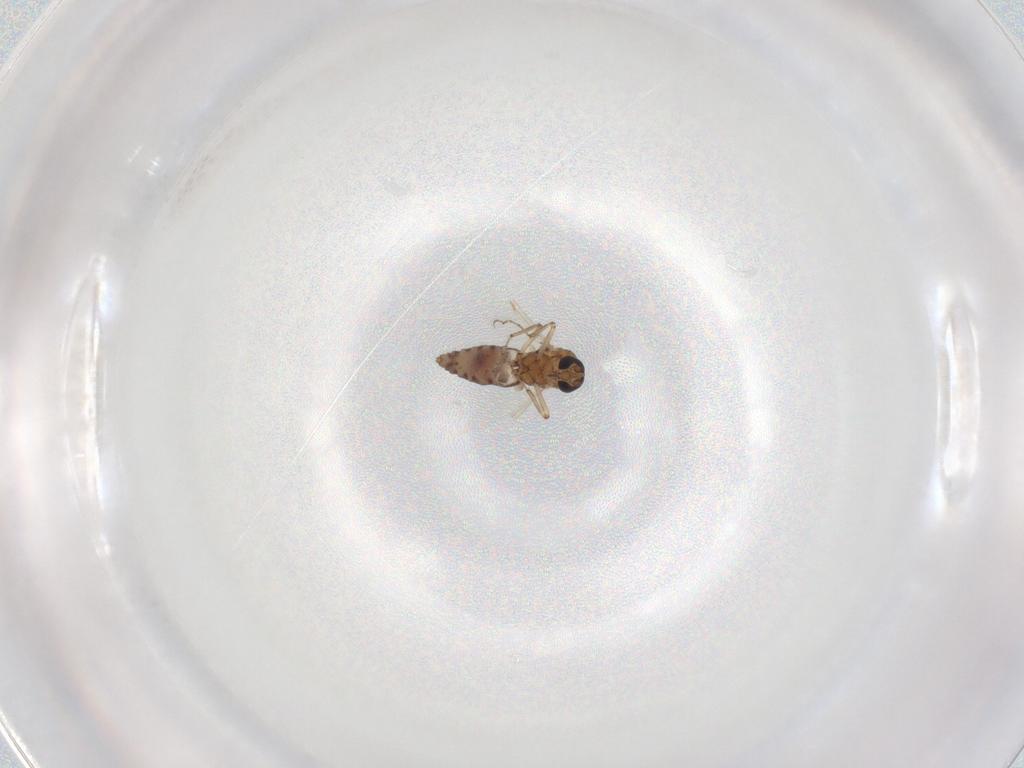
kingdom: Animalia
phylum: Arthropoda
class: Insecta
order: Diptera
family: Ceratopogonidae
